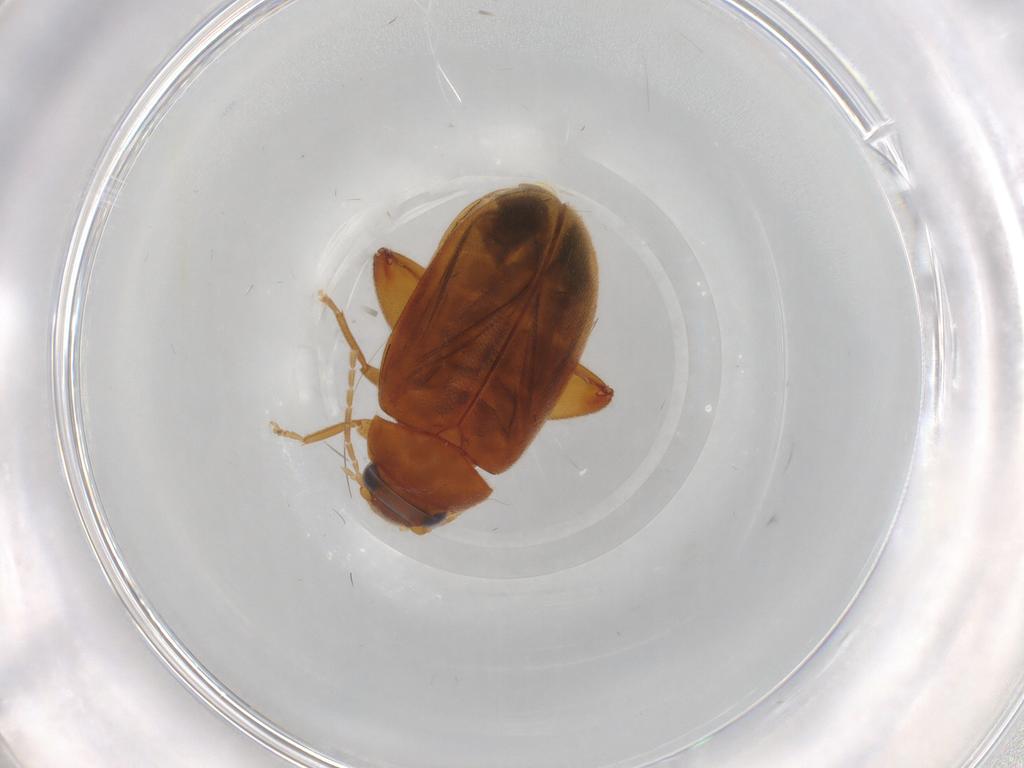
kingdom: Animalia
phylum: Arthropoda
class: Insecta
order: Coleoptera
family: Scirtidae
